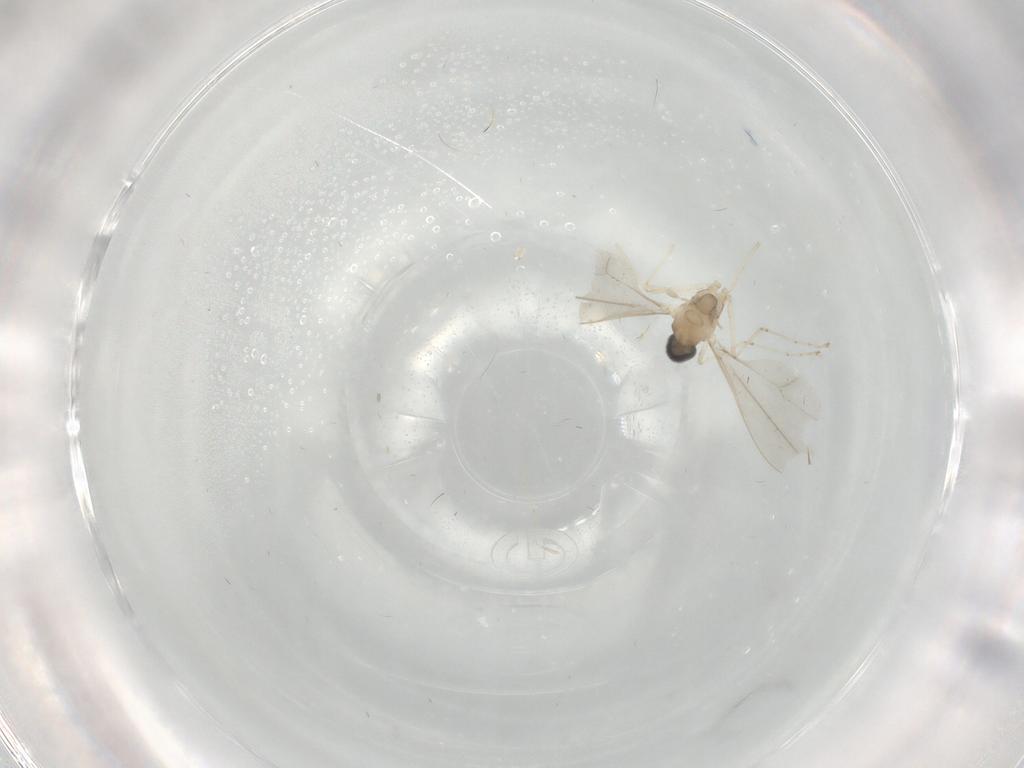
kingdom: Animalia
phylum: Arthropoda
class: Insecta
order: Diptera
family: Cecidomyiidae
